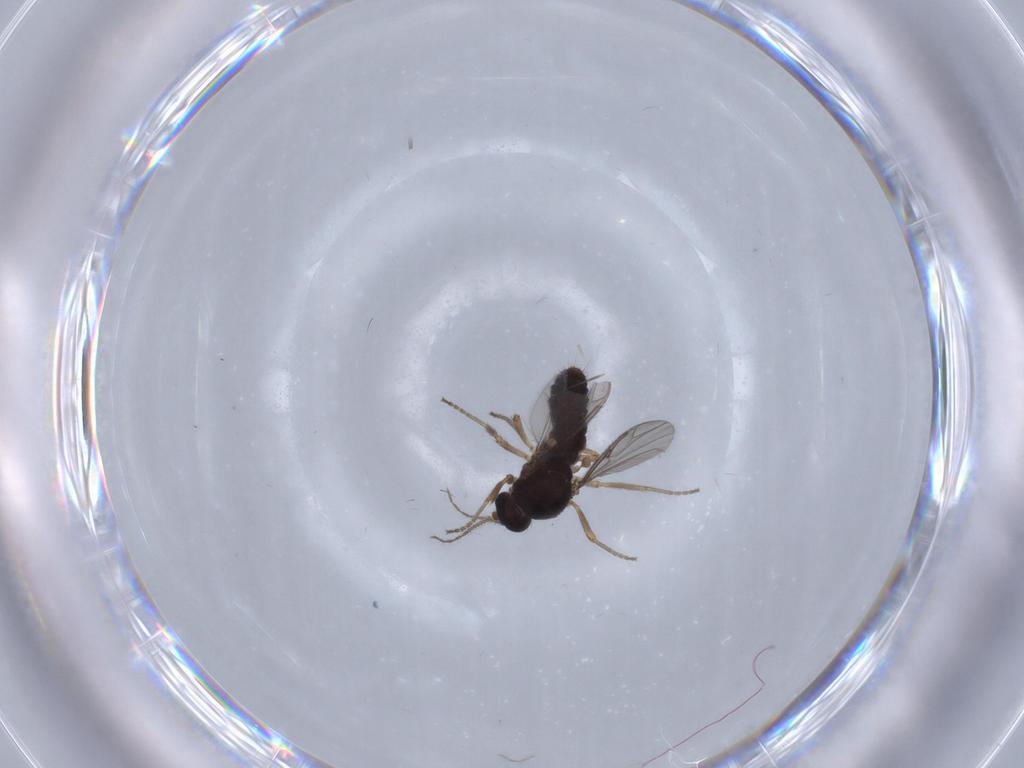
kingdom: Animalia
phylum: Arthropoda
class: Insecta
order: Diptera
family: Ceratopogonidae
